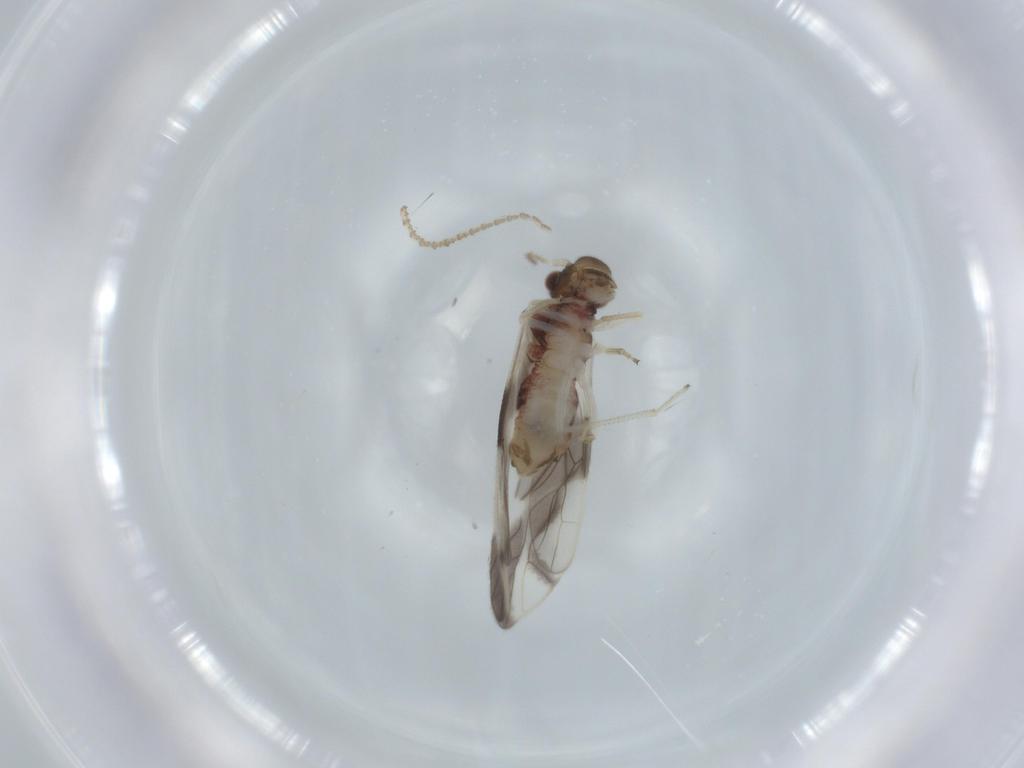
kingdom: Animalia
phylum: Arthropoda
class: Insecta
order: Psocodea
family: Caeciliusidae
